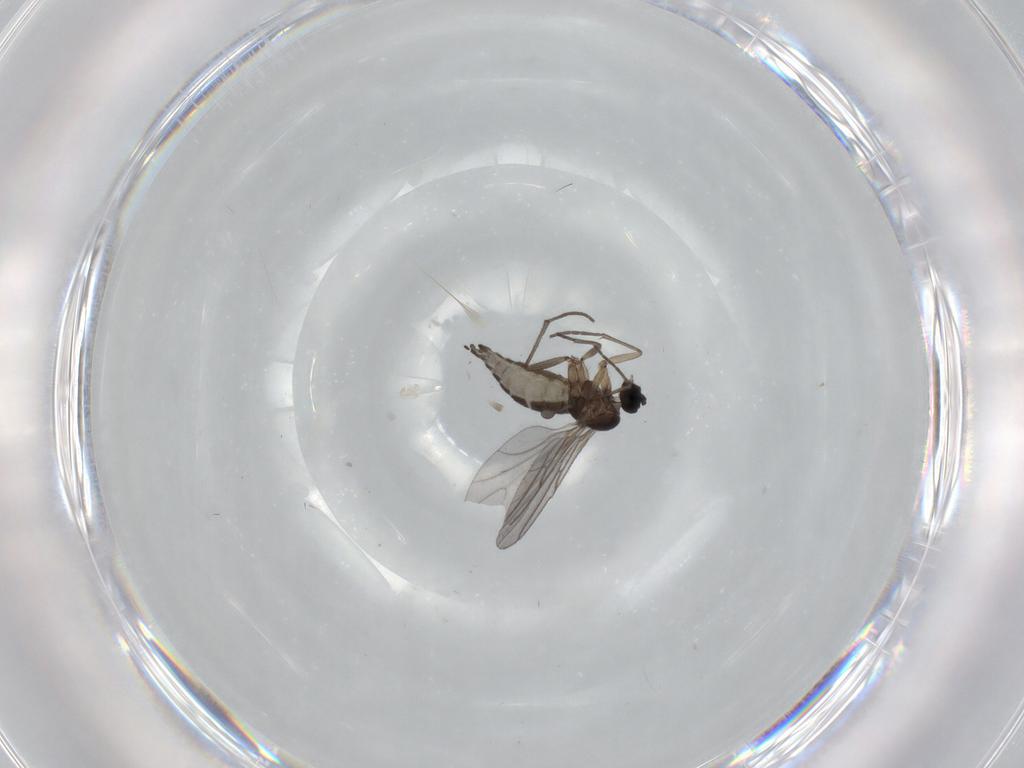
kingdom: Animalia
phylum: Arthropoda
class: Insecta
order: Diptera
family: Sciaridae
